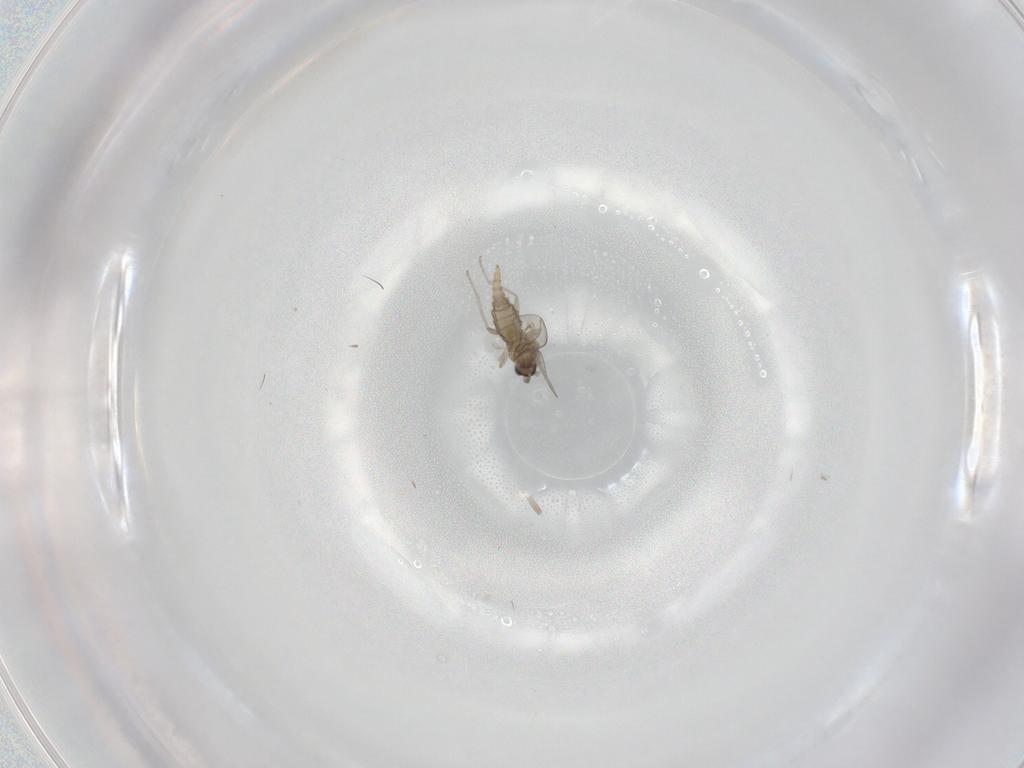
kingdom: Animalia
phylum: Arthropoda
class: Insecta
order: Diptera
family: Cecidomyiidae
